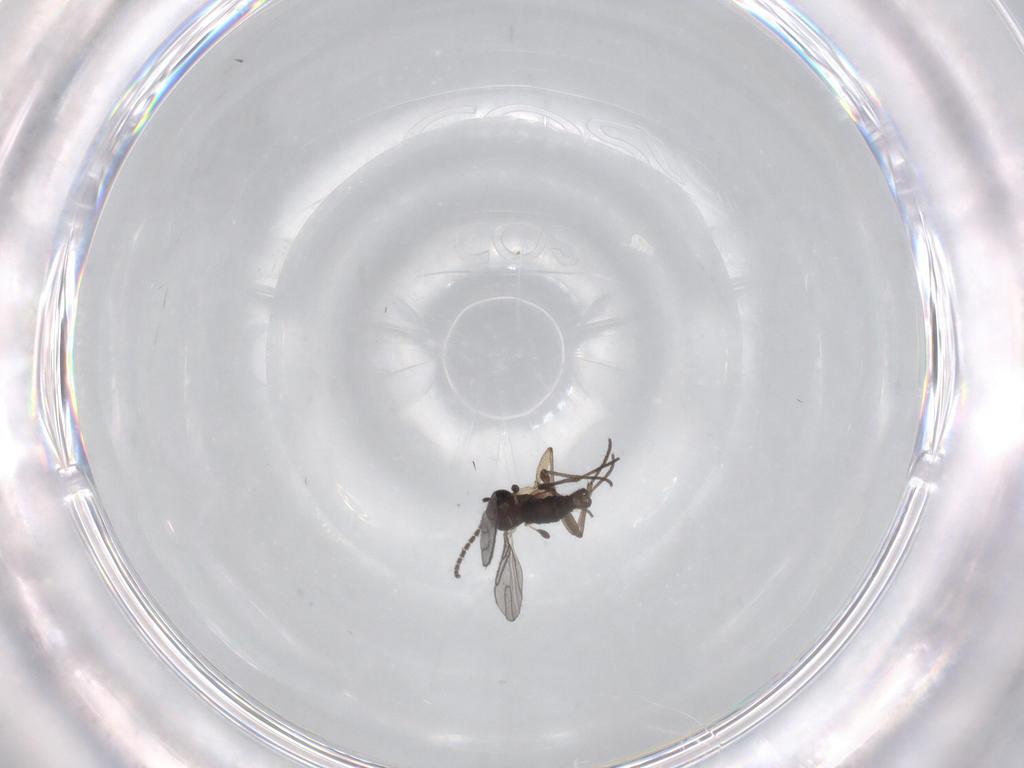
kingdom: Animalia
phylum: Arthropoda
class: Insecta
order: Diptera
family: Sciaridae
